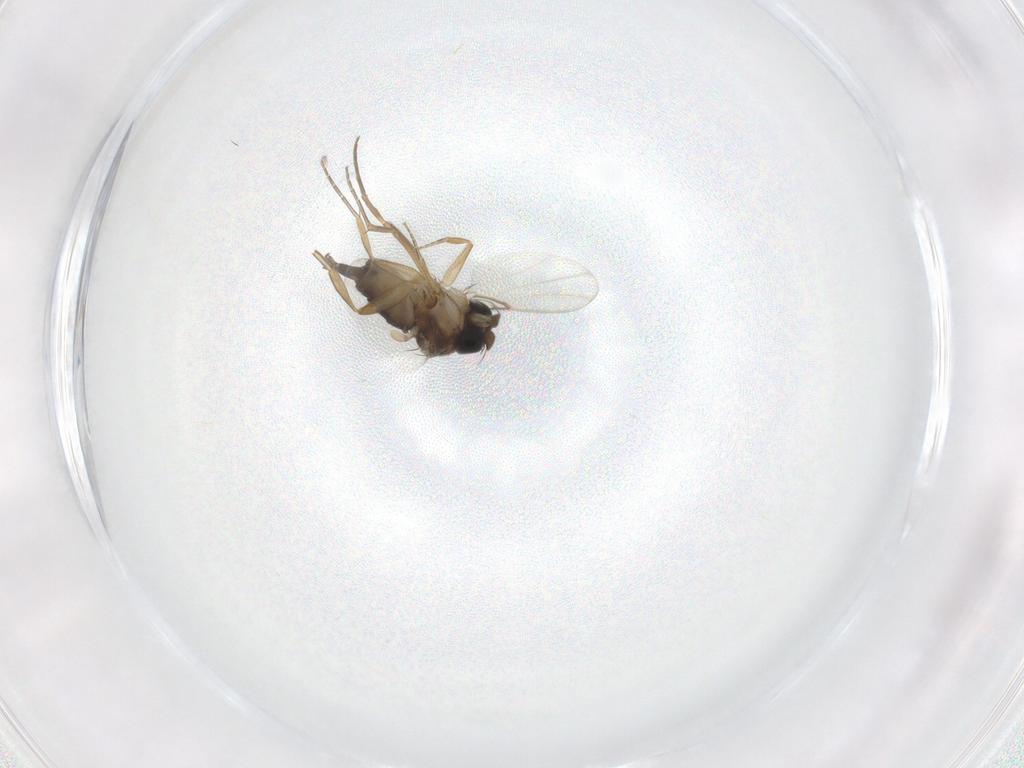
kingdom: Animalia
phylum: Arthropoda
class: Insecta
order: Diptera
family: Phoridae
